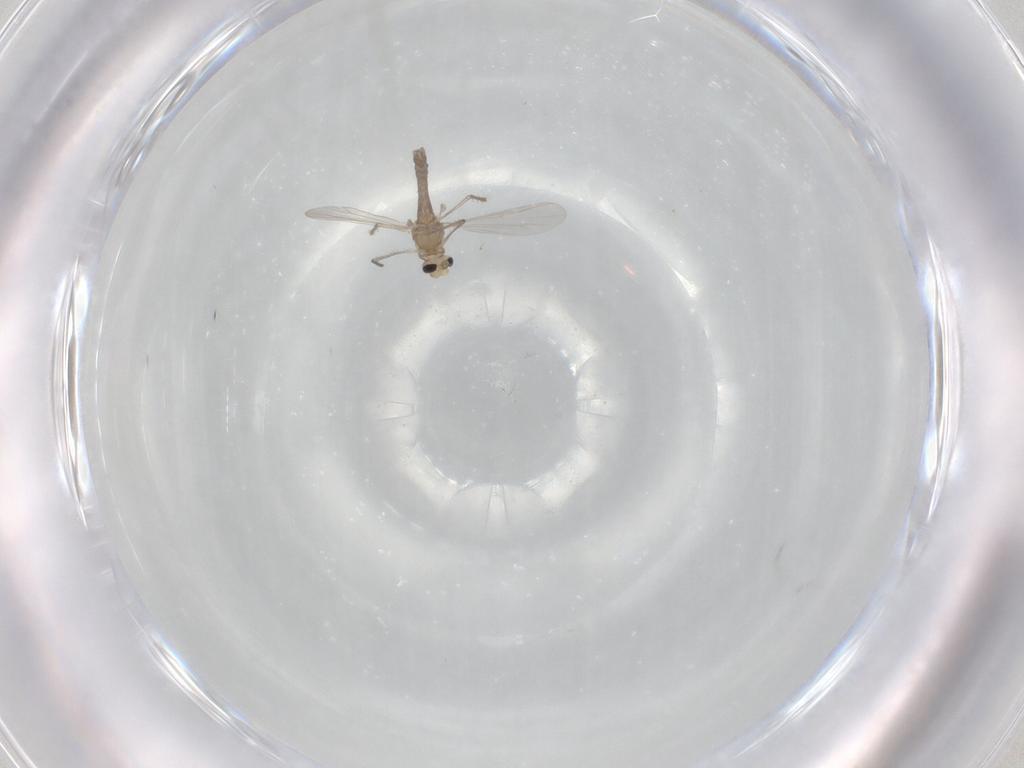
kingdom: Animalia
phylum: Arthropoda
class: Insecta
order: Diptera
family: Chironomidae
